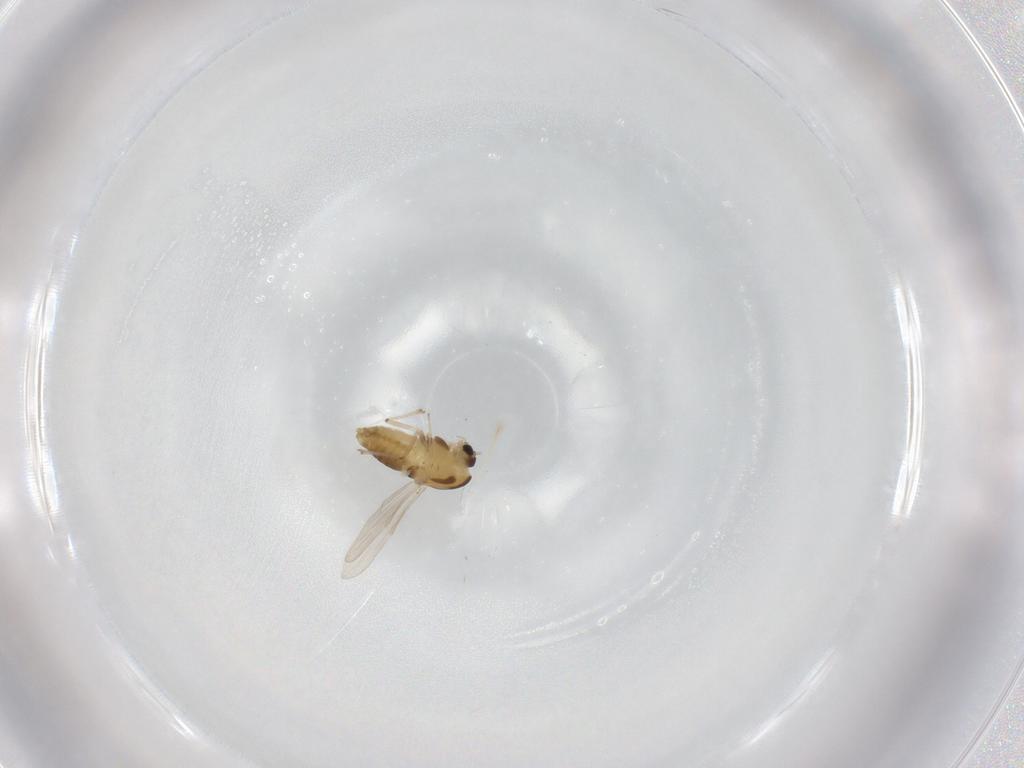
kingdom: Animalia
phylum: Arthropoda
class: Insecta
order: Diptera
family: Chironomidae
